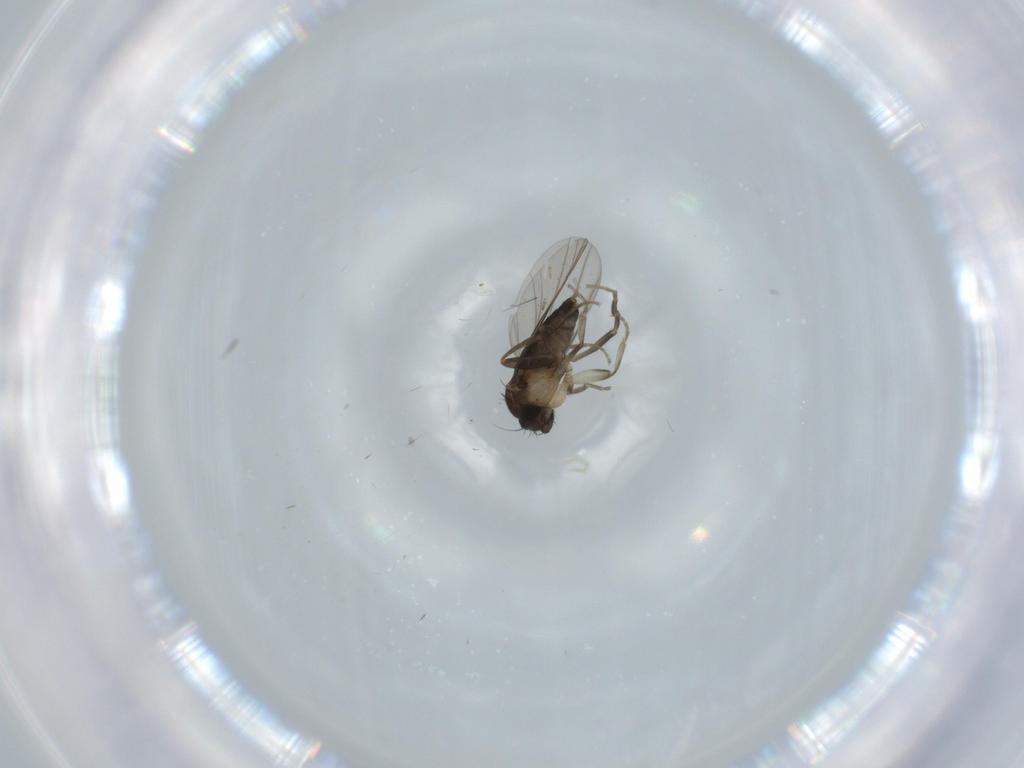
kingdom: Animalia
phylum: Arthropoda
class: Insecta
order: Diptera
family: Phoridae
